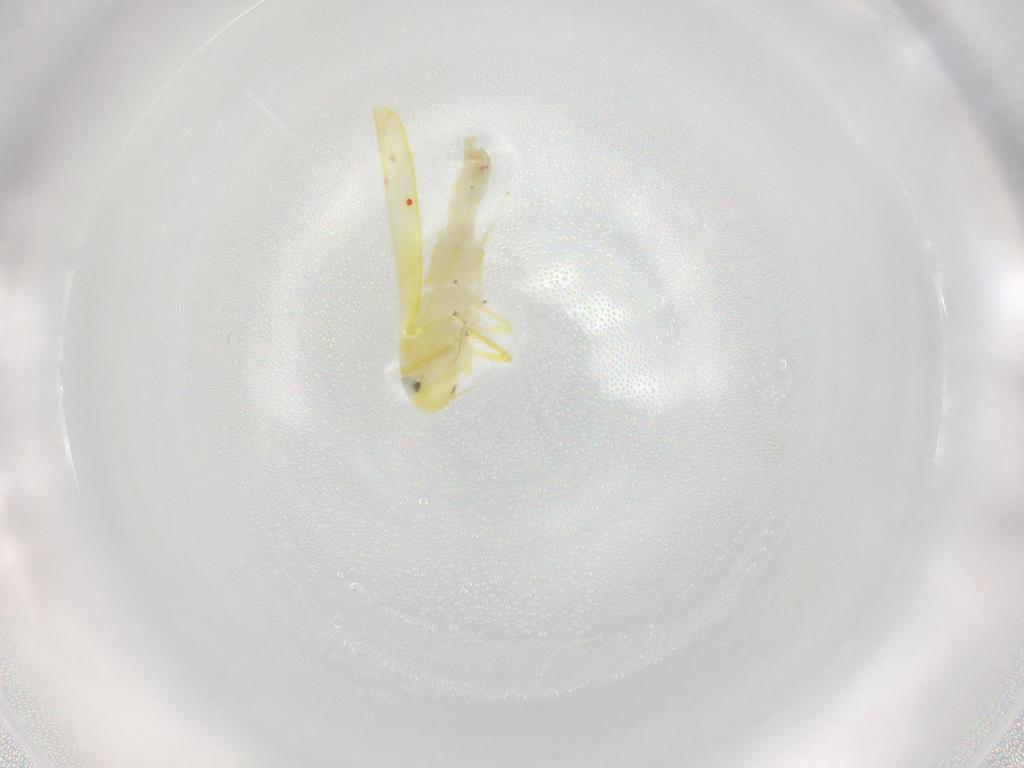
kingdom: Animalia
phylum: Arthropoda
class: Insecta
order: Hemiptera
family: Cicadellidae
